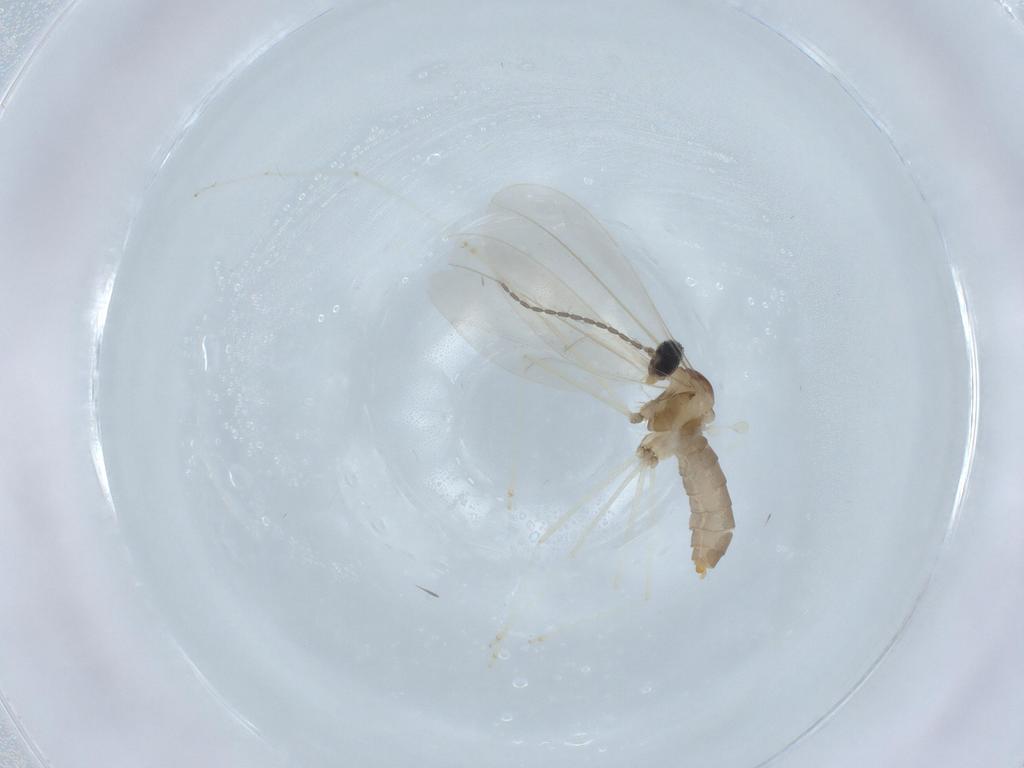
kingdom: Animalia
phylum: Arthropoda
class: Insecta
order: Diptera
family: Cecidomyiidae
